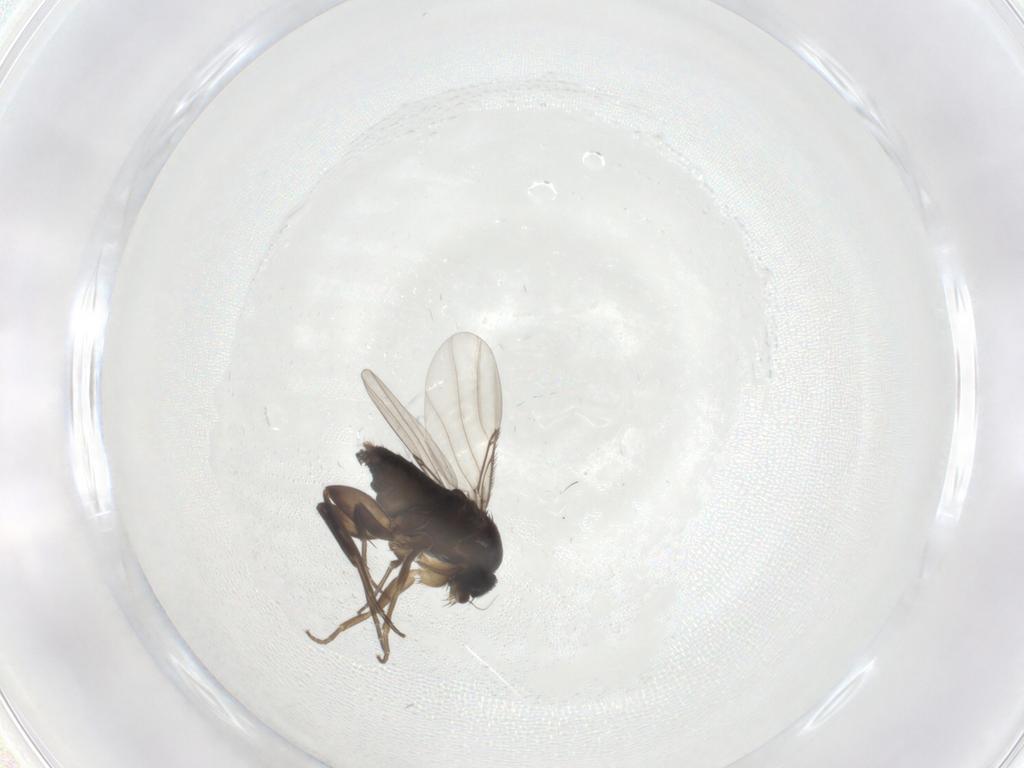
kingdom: Animalia
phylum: Arthropoda
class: Insecta
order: Diptera
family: Phoridae
